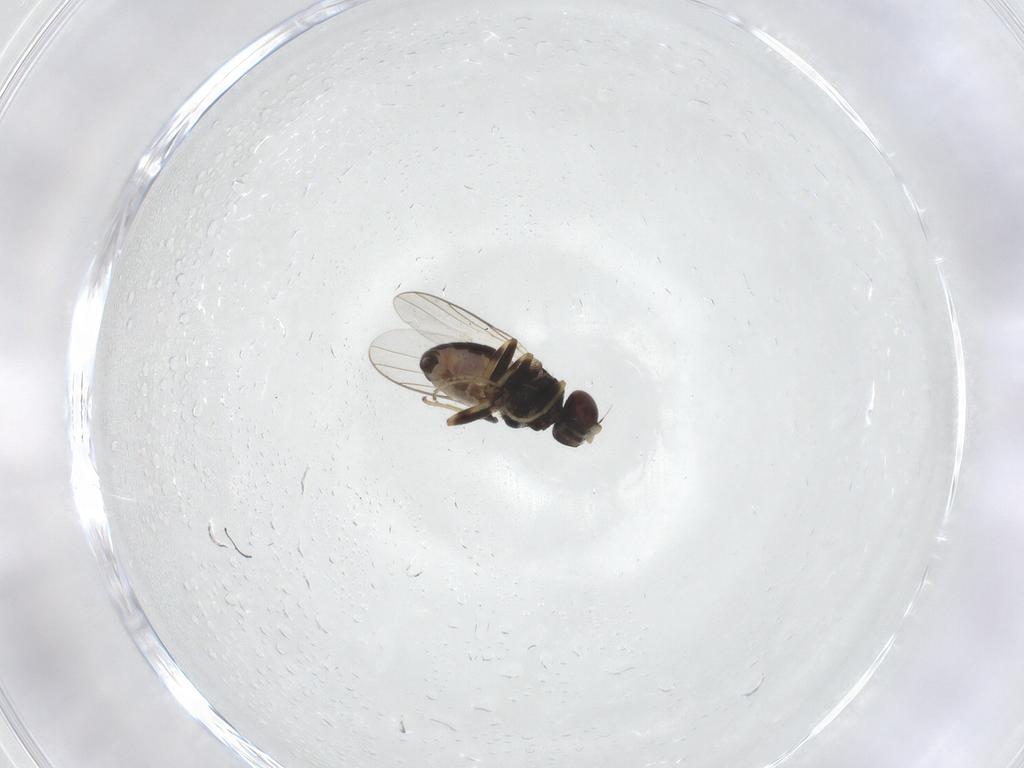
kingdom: Animalia
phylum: Arthropoda
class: Insecta
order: Diptera
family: Chloropidae
